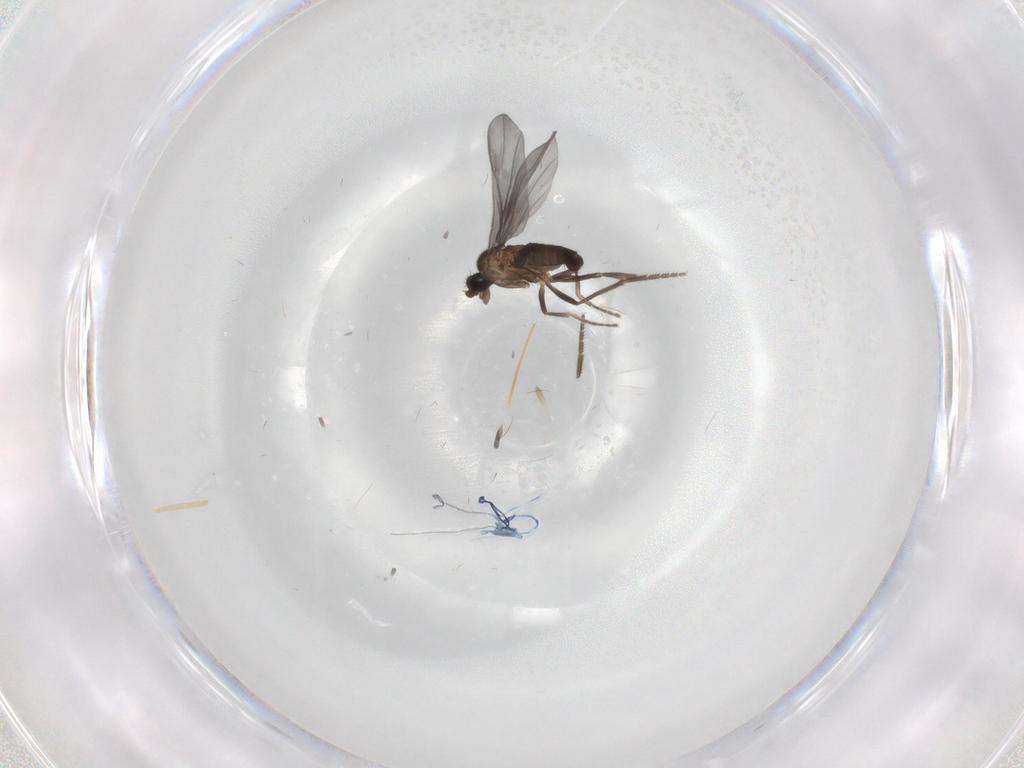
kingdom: Animalia
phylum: Arthropoda
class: Insecta
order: Diptera
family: Phoridae
